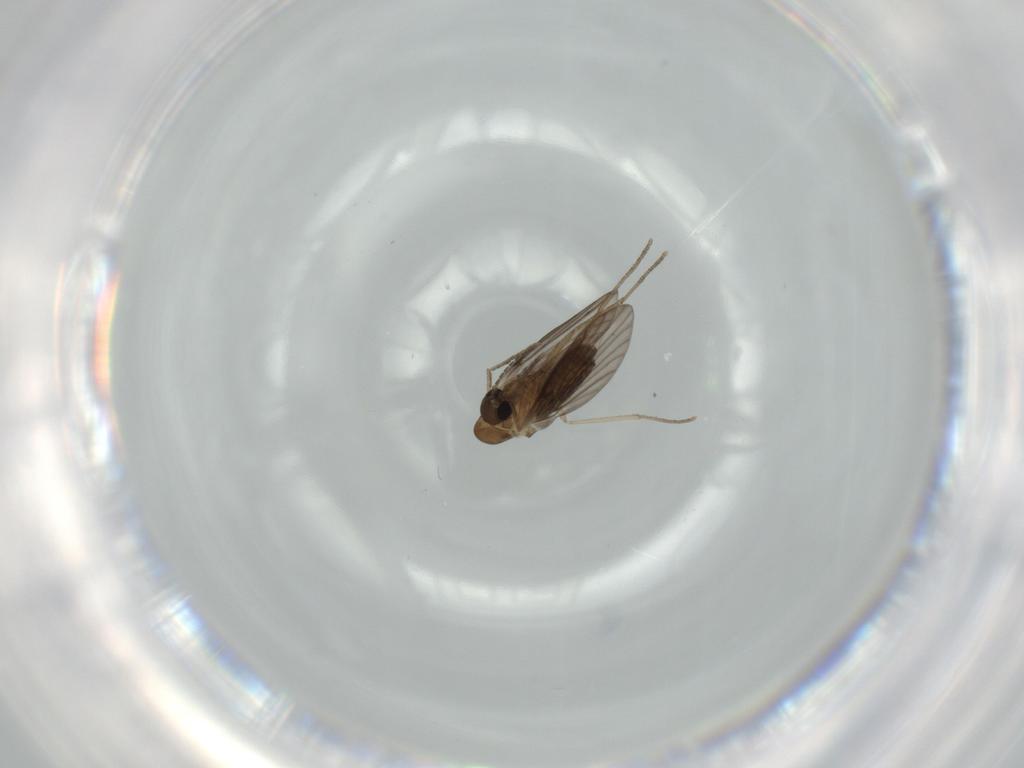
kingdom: Animalia
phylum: Arthropoda
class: Insecta
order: Diptera
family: Psychodidae
